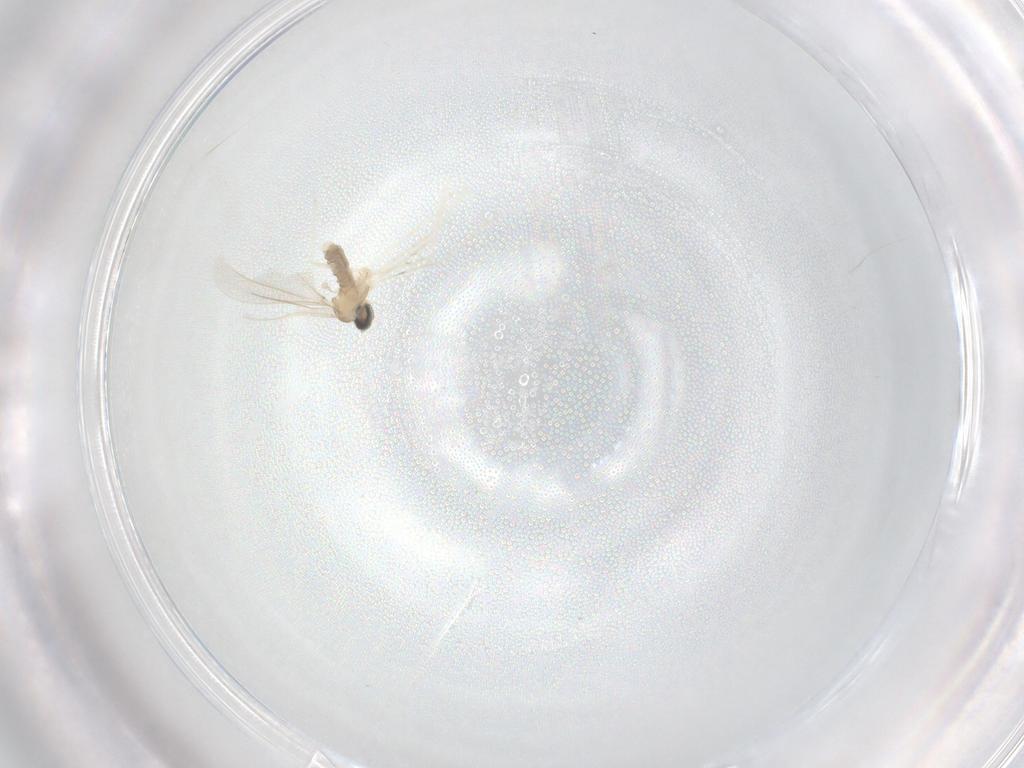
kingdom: Animalia
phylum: Arthropoda
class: Insecta
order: Diptera
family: Cecidomyiidae
